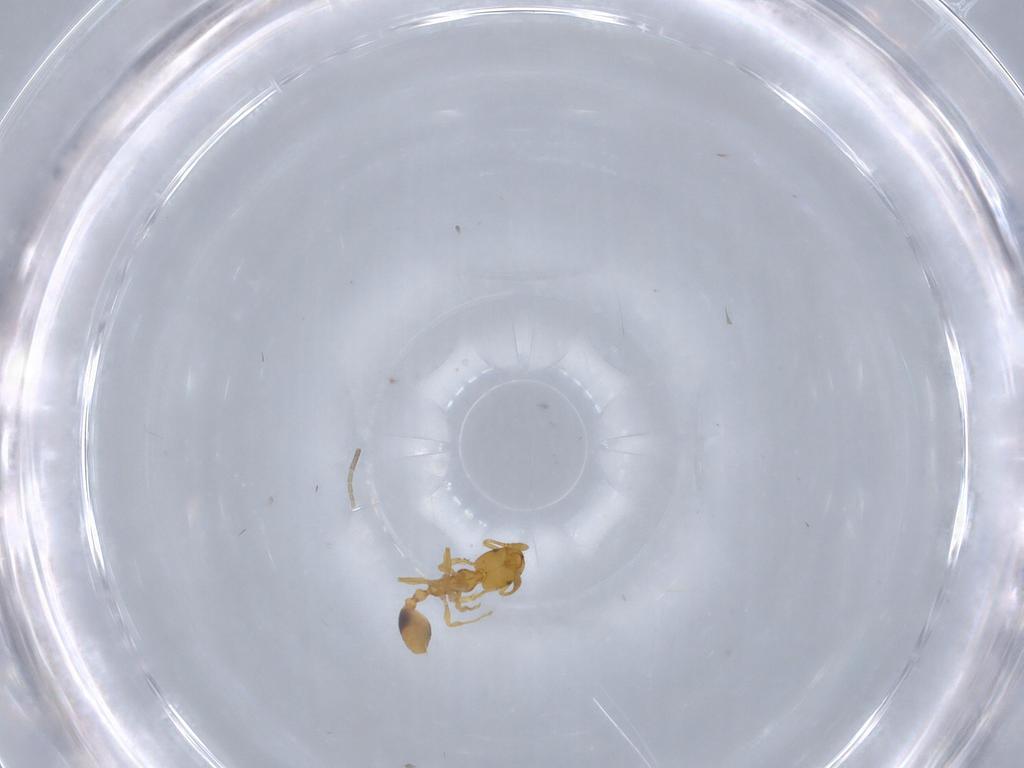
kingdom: Animalia
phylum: Arthropoda
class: Insecta
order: Hymenoptera
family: Formicidae
